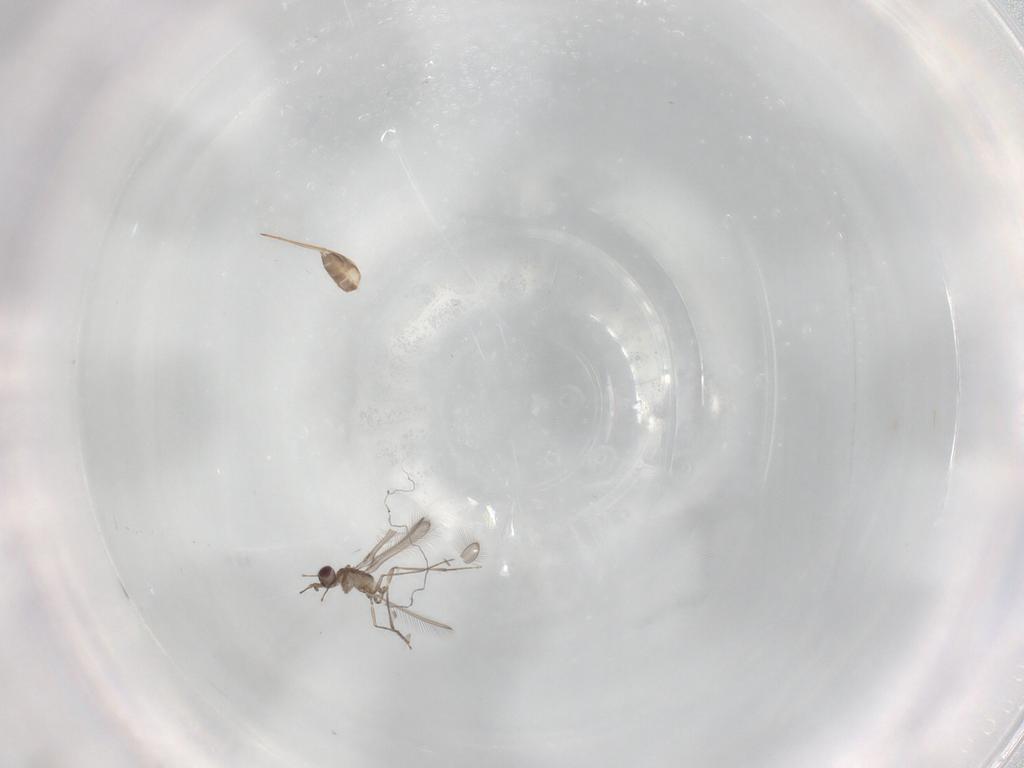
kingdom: Animalia
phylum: Arthropoda
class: Insecta
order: Hymenoptera
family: Mymaridae
